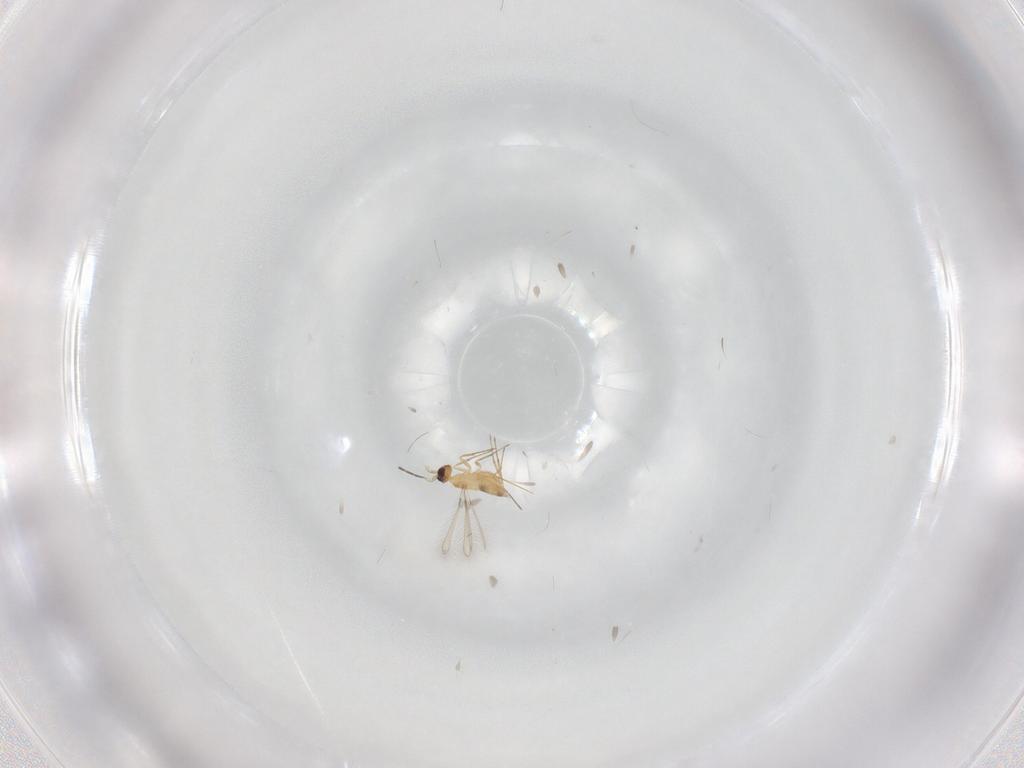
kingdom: Animalia
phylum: Arthropoda
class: Insecta
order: Hymenoptera
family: Mymaridae
